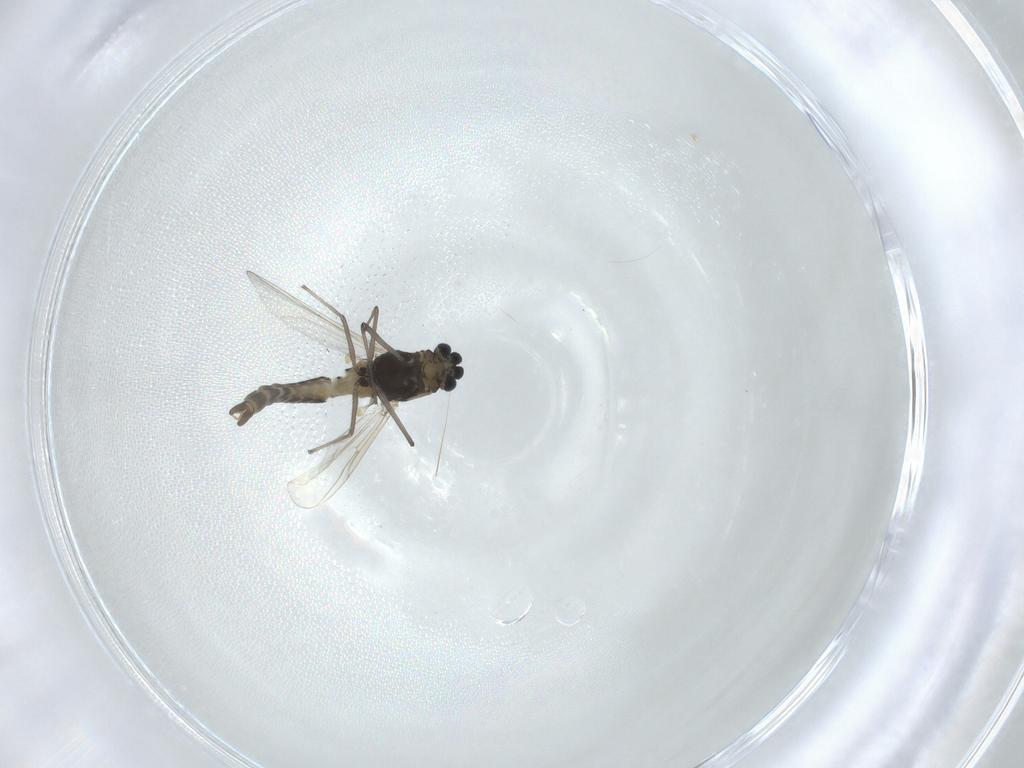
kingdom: Animalia
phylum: Arthropoda
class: Insecta
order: Diptera
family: Chironomidae
